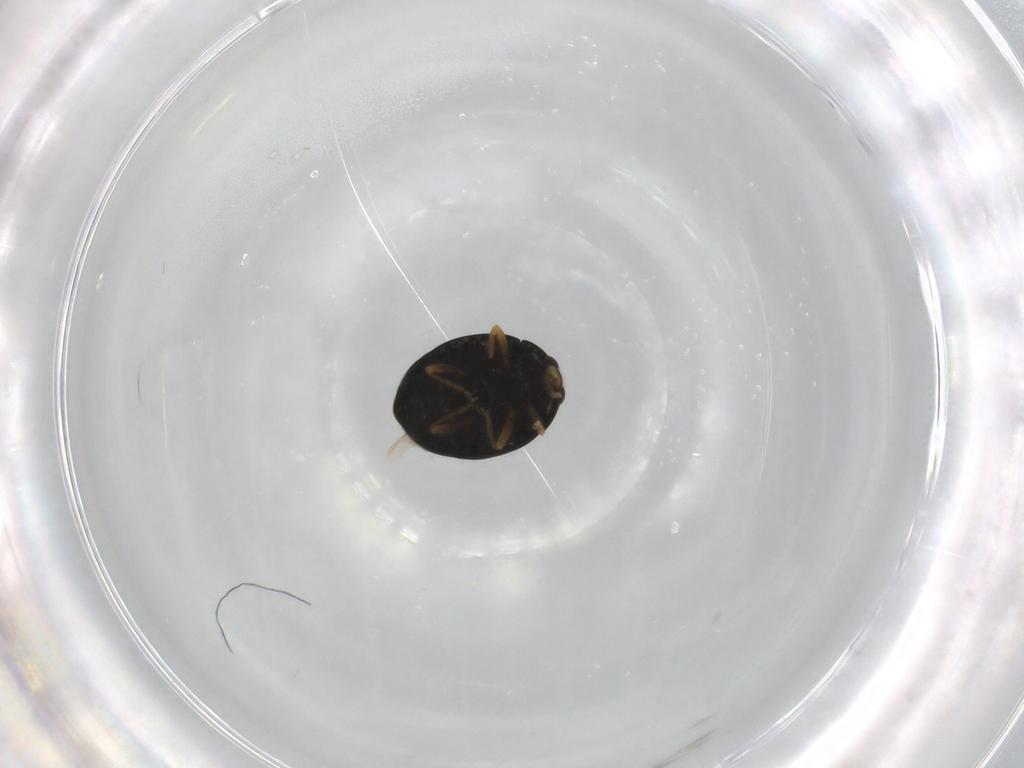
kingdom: Animalia
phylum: Arthropoda
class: Insecta
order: Coleoptera
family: Coccinellidae
